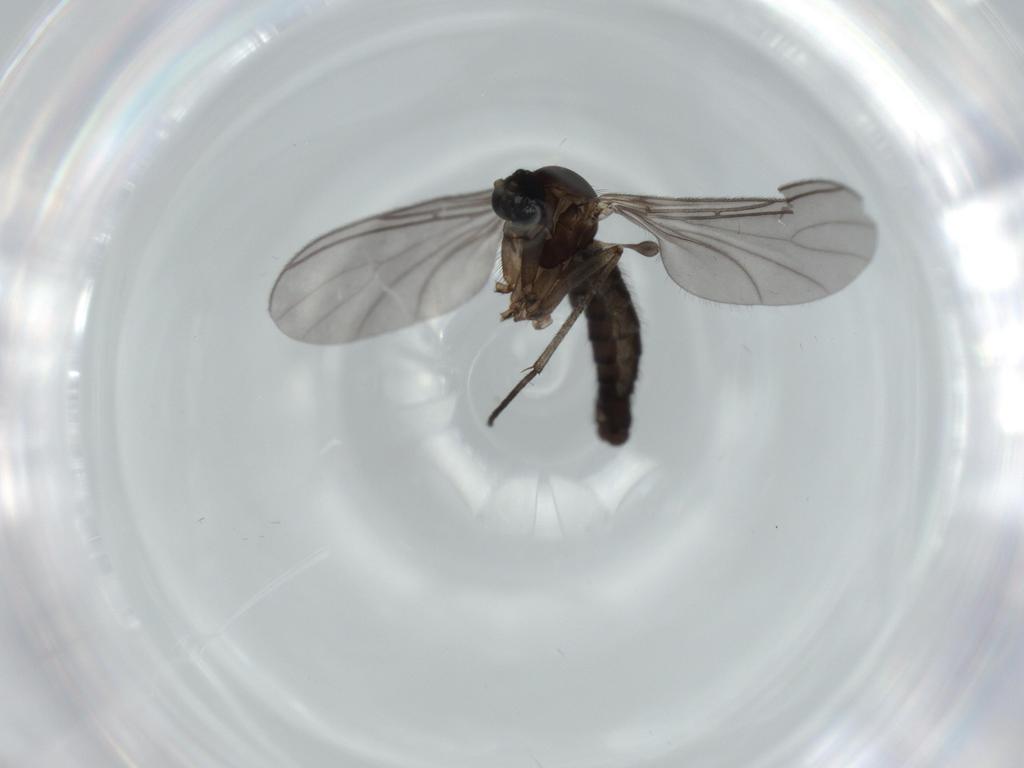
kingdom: Animalia
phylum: Arthropoda
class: Insecta
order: Diptera
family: Sciaridae
